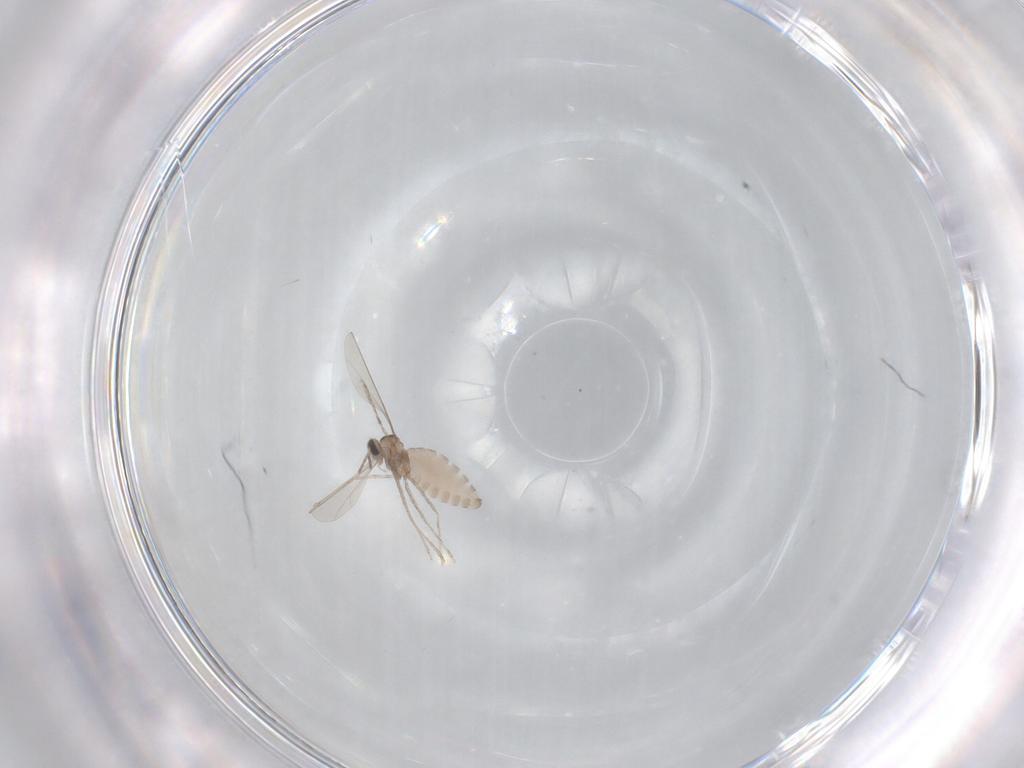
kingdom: Animalia
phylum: Arthropoda
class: Insecta
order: Diptera
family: Cecidomyiidae
